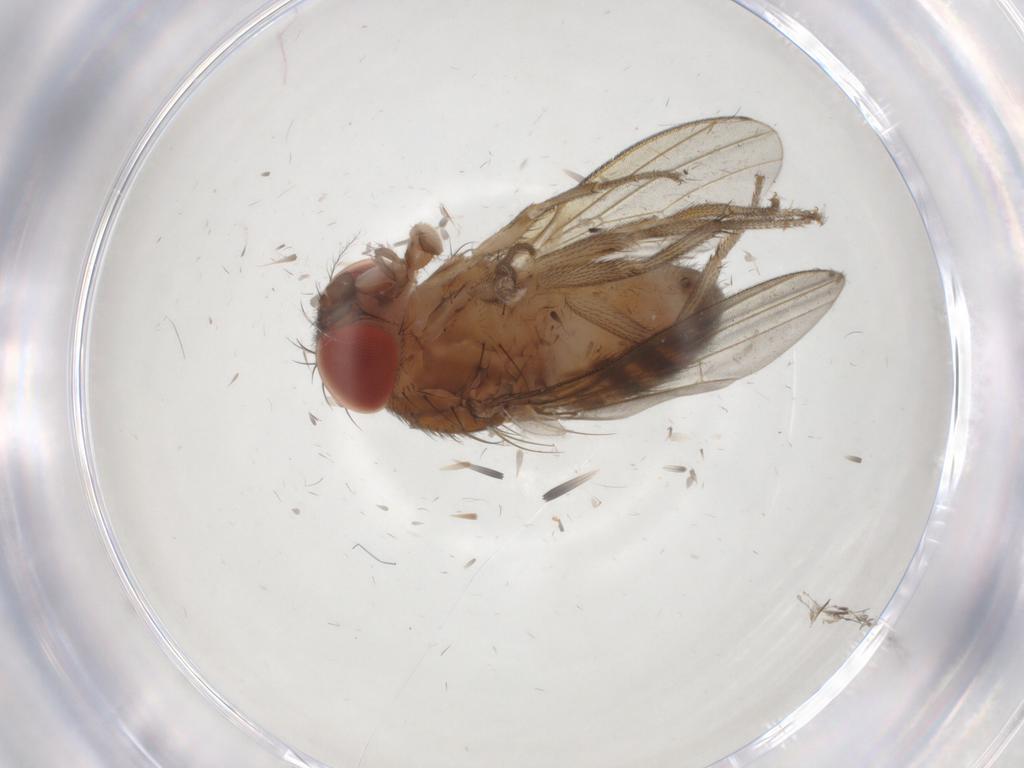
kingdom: Animalia
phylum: Arthropoda
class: Insecta
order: Diptera
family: Drosophilidae
